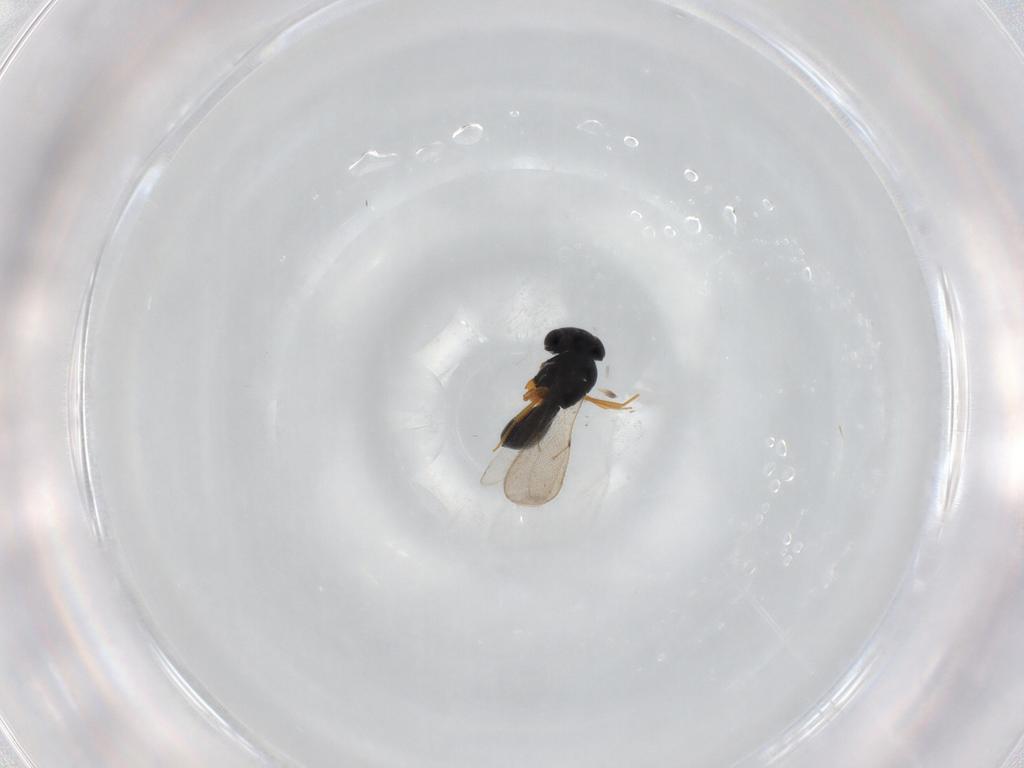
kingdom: Animalia
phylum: Arthropoda
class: Insecta
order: Hymenoptera
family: Scelionidae
